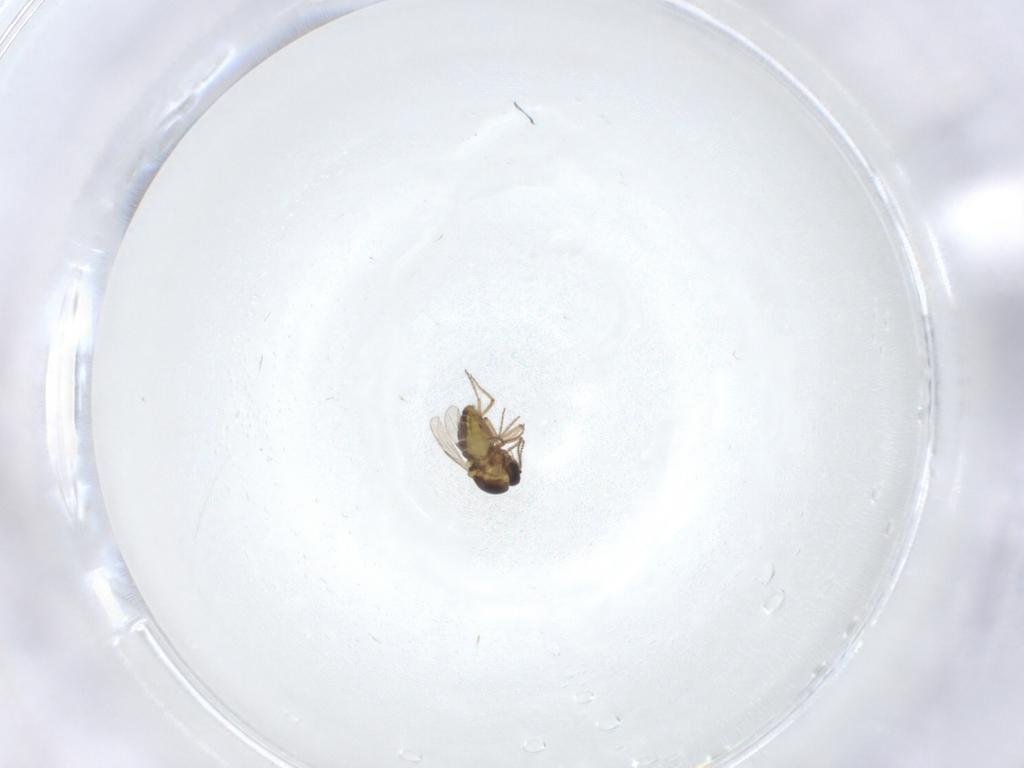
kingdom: Animalia
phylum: Arthropoda
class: Insecta
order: Diptera
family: Ceratopogonidae
